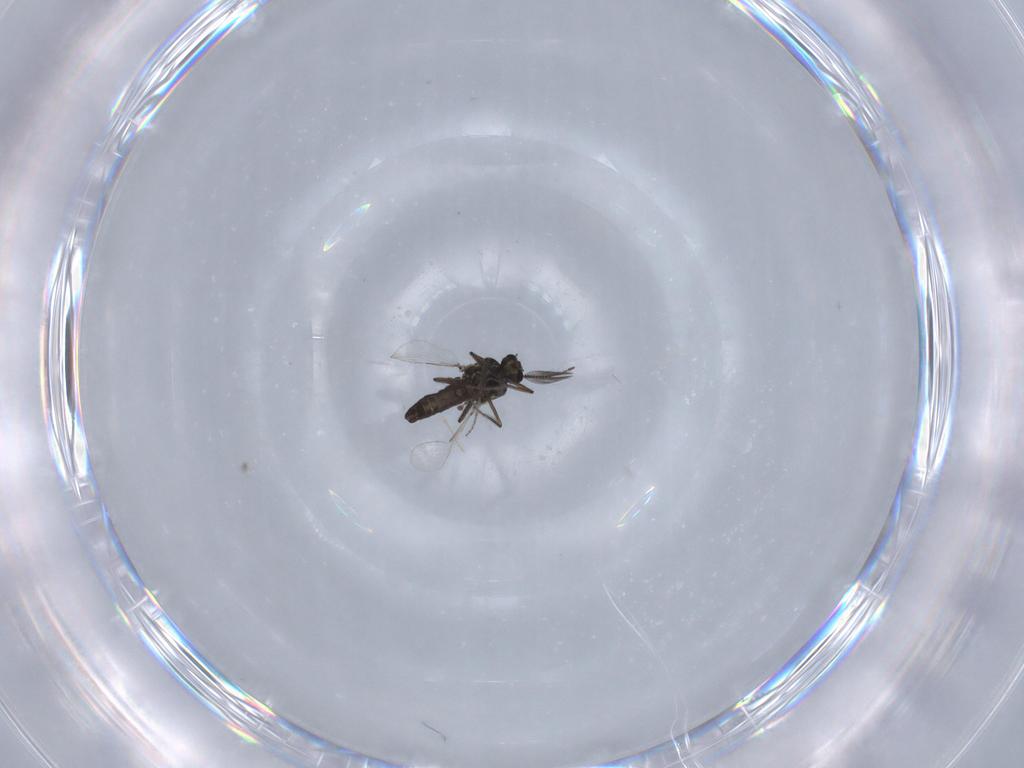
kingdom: Animalia
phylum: Arthropoda
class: Insecta
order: Diptera
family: Ceratopogonidae
